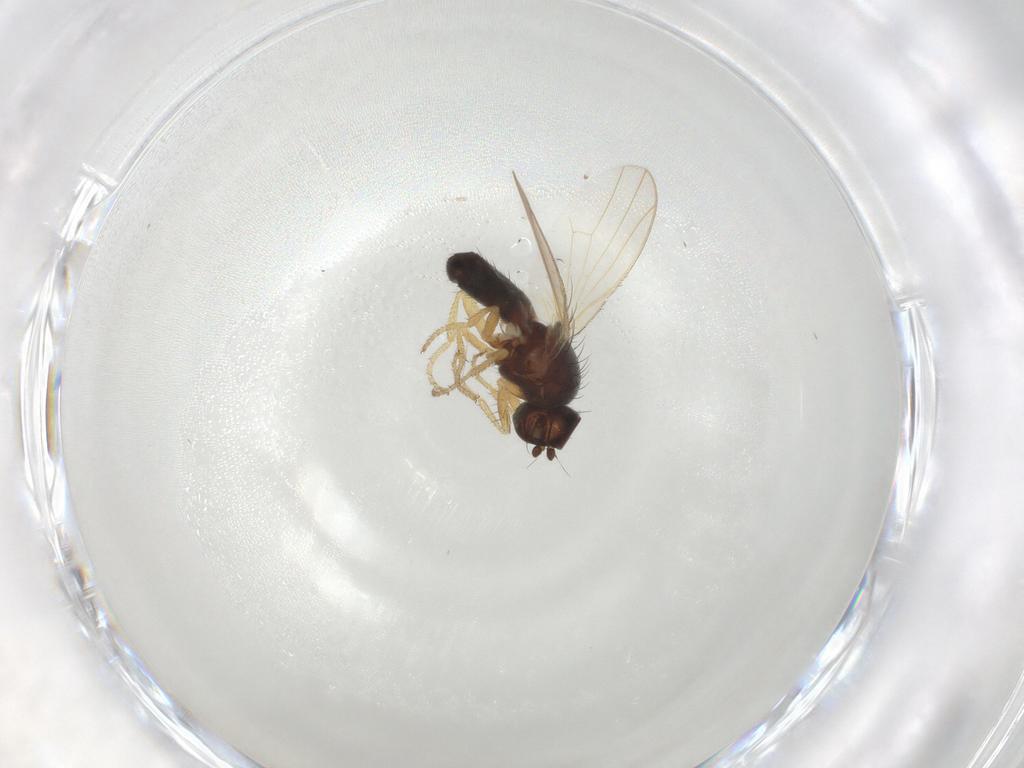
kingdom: Animalia
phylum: Arthropoda
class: Insecta
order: Diptera
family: Heleomyzidae
